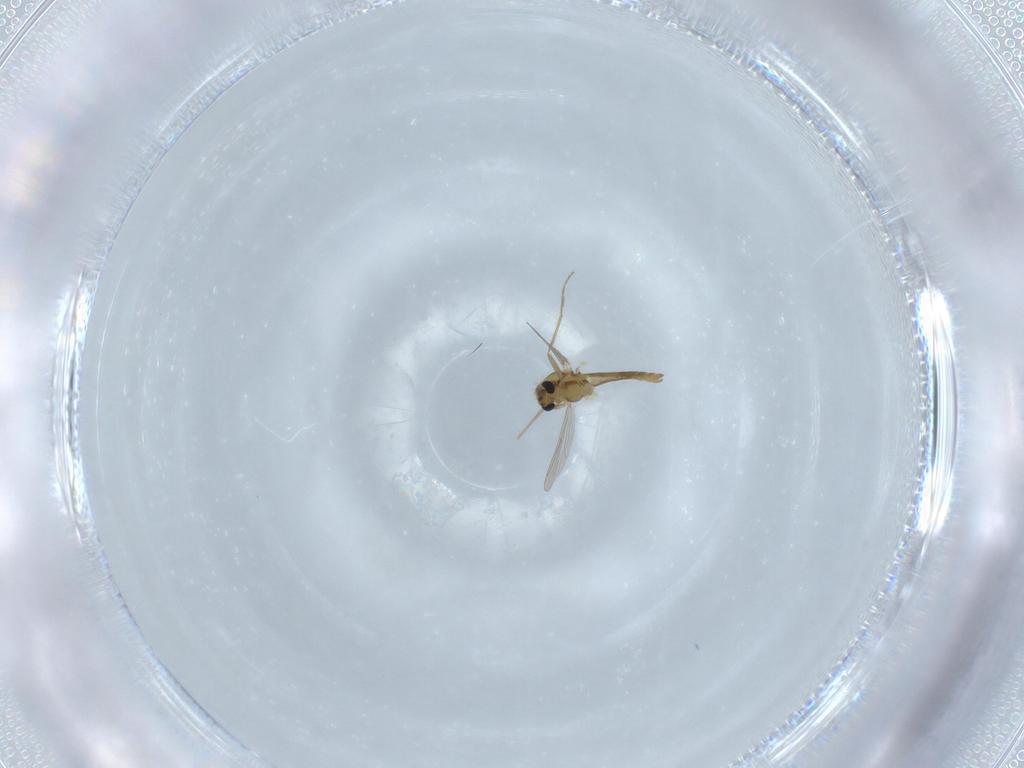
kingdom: Animalia
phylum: Arthropoda
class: Insecta
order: Diptera
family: Chironomidae
